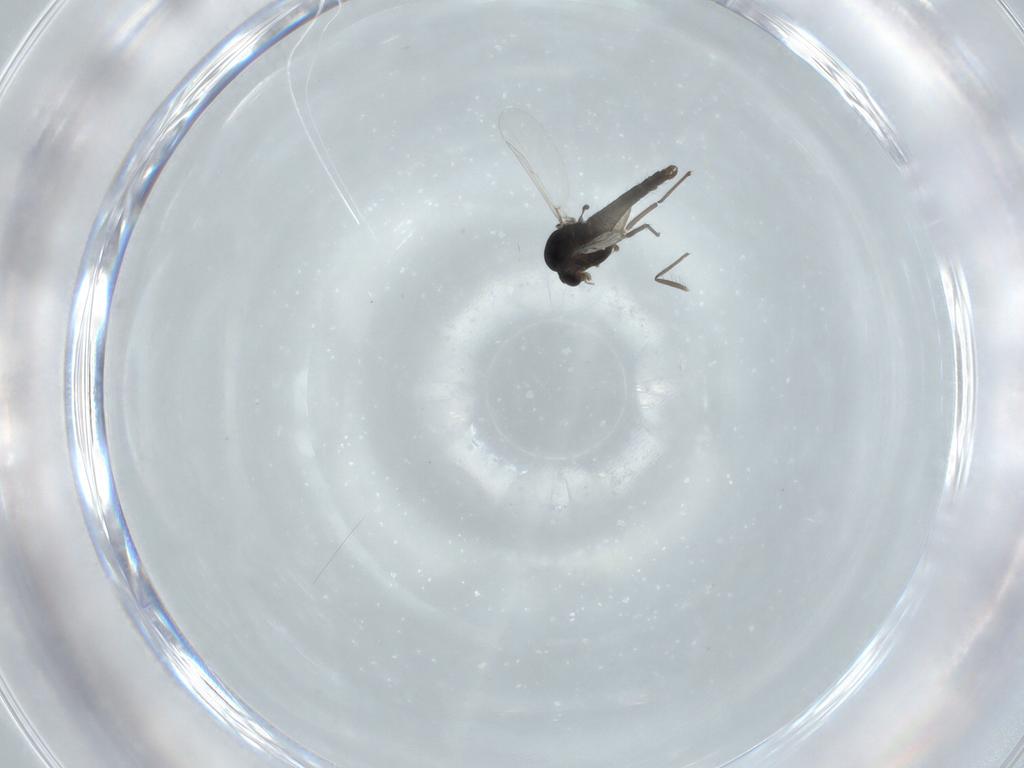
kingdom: Animalia
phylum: Arthropoda
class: Insecta
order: Diptera
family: Chironomidae
